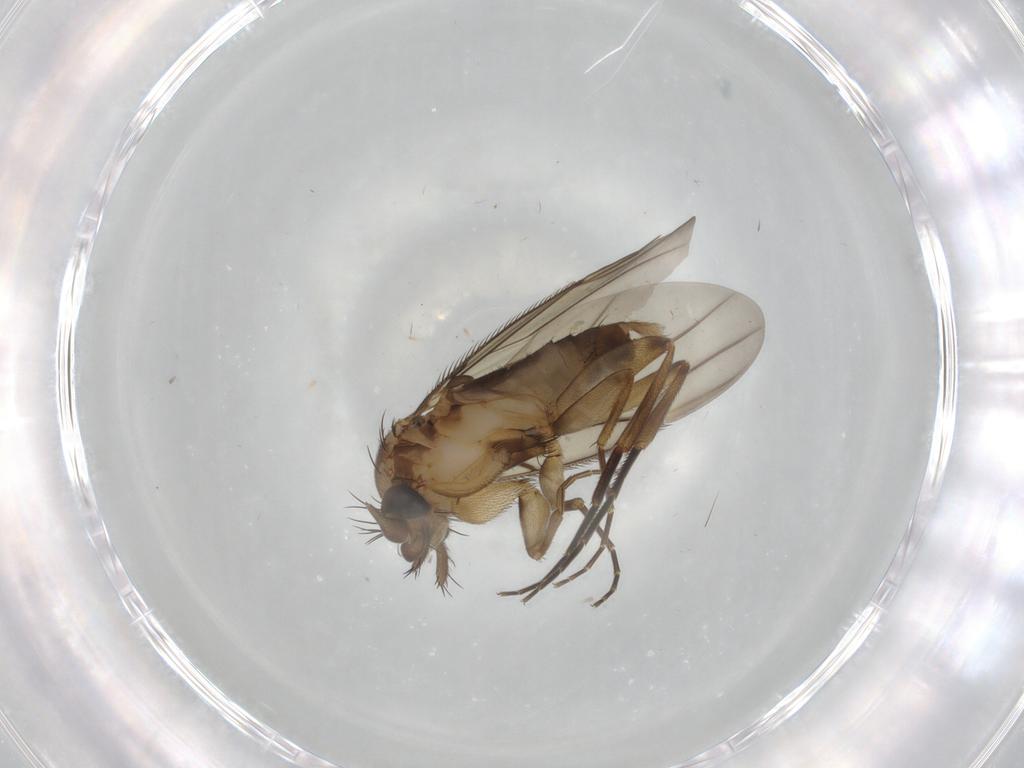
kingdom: Animalia
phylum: Arthropoda
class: Insecta
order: Diptera
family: Phoridae
